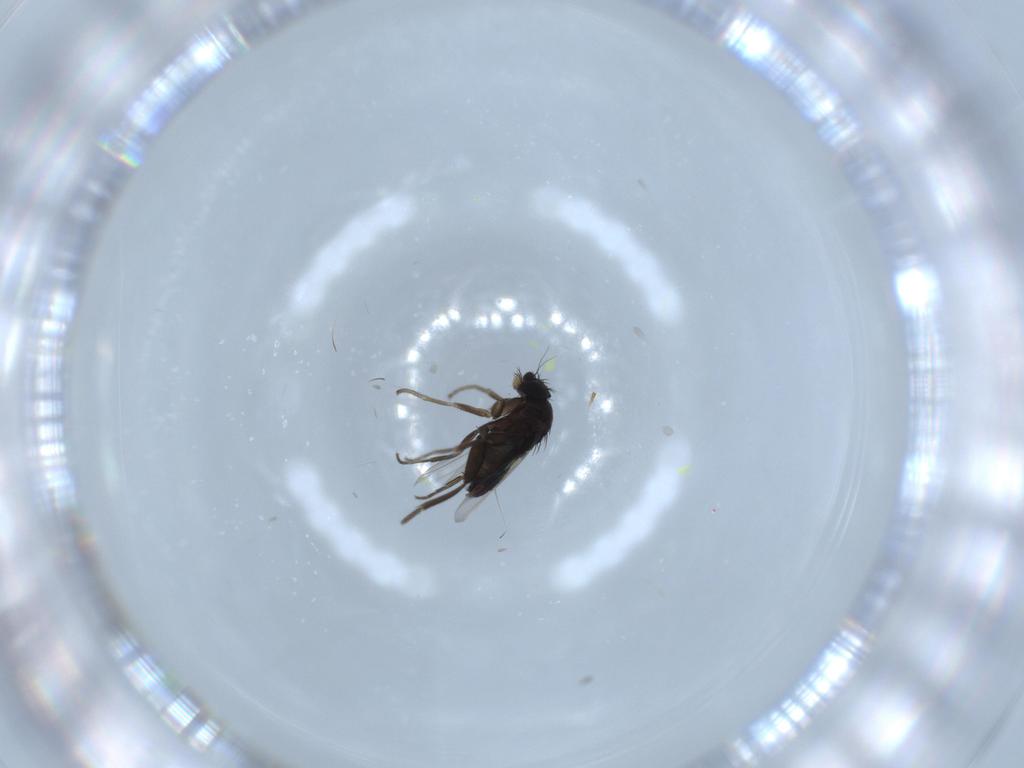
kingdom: Animalia
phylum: Arthropoda
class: Insecta
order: Diptera
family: Phoridae
